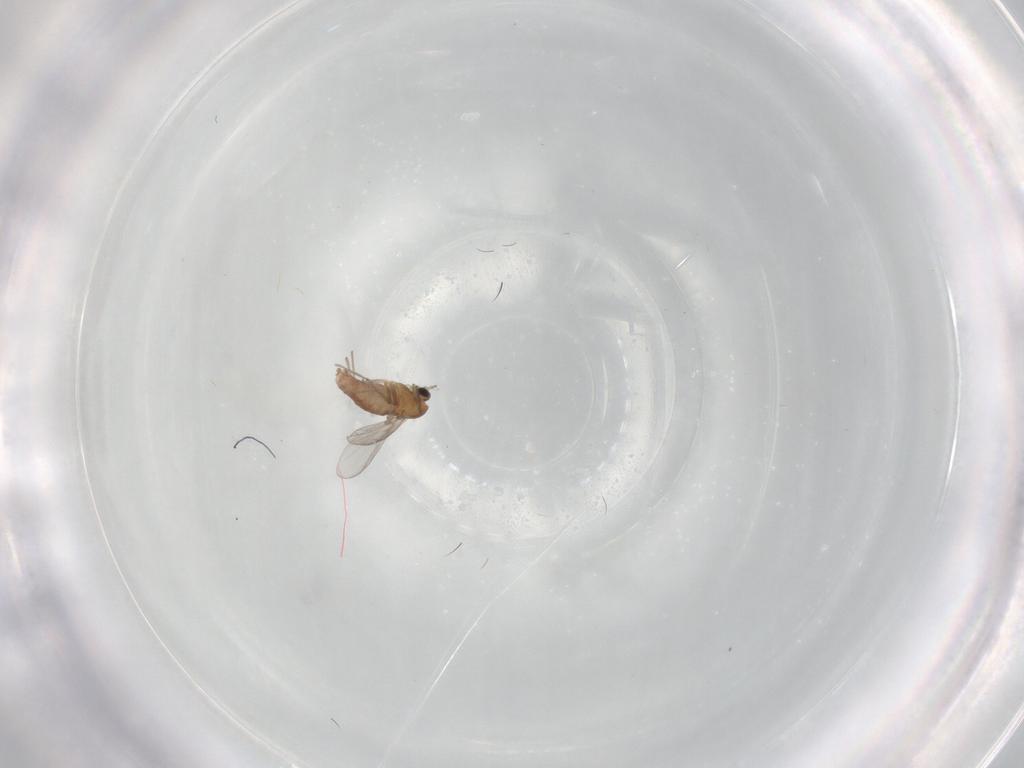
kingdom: Animalia
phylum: Arthropoda
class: Insecta
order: Diptera
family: Chironomidae
